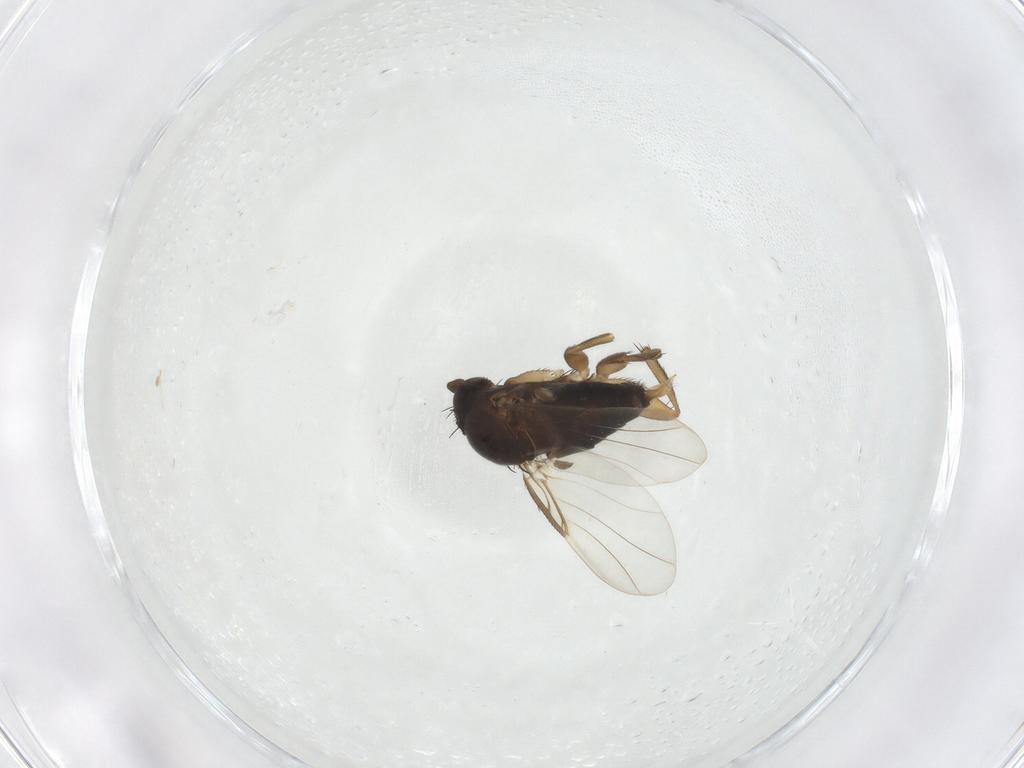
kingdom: Animalia
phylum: Arthropoda
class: Insecta
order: Diptera
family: Phoridae
